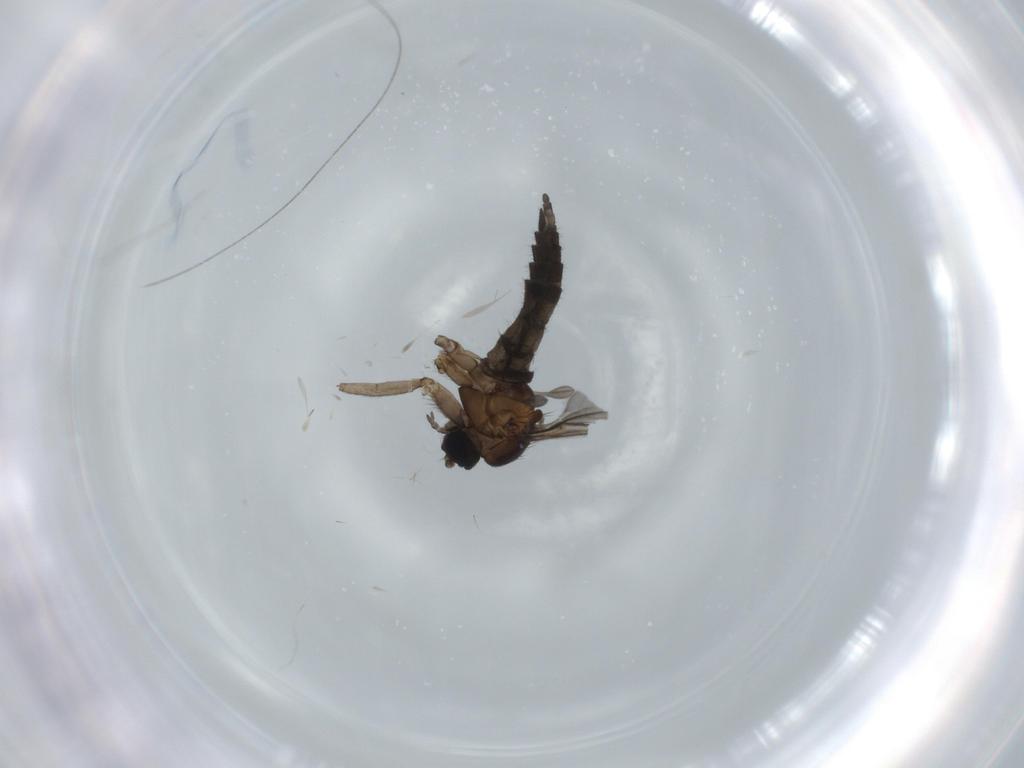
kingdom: Animalia
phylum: Arthropoda
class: Insecta
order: Diptera
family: Sciaridae
